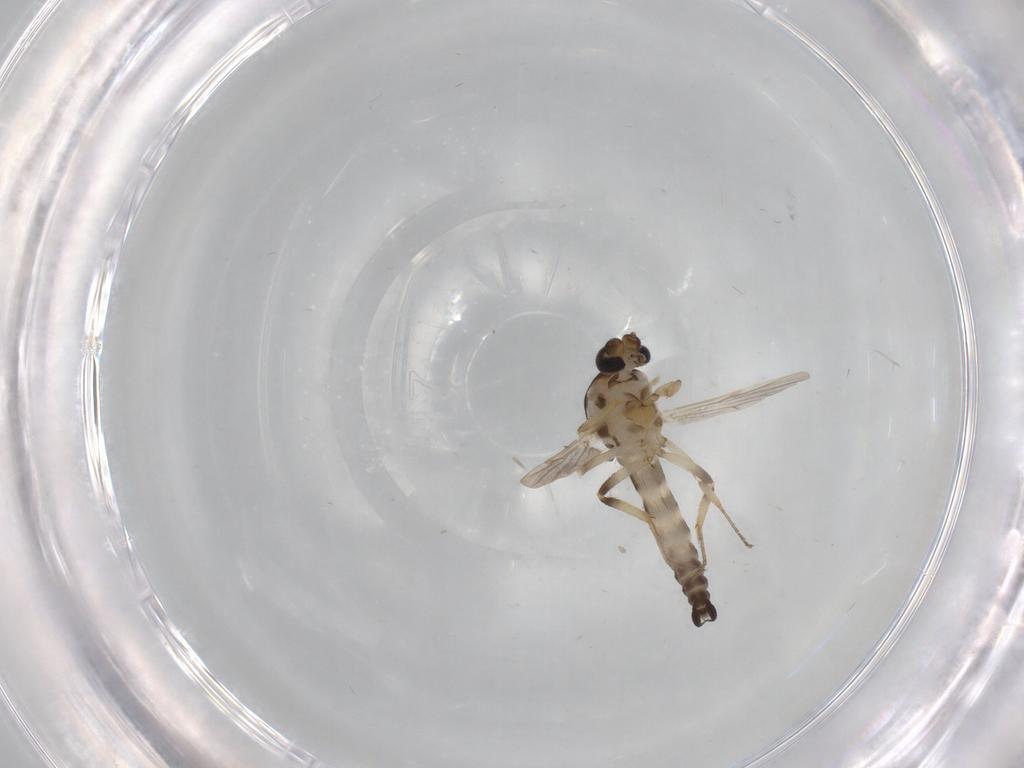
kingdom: Animalia
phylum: Arthropoda
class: Insecta
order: Diptera
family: Ceratopogonidae
